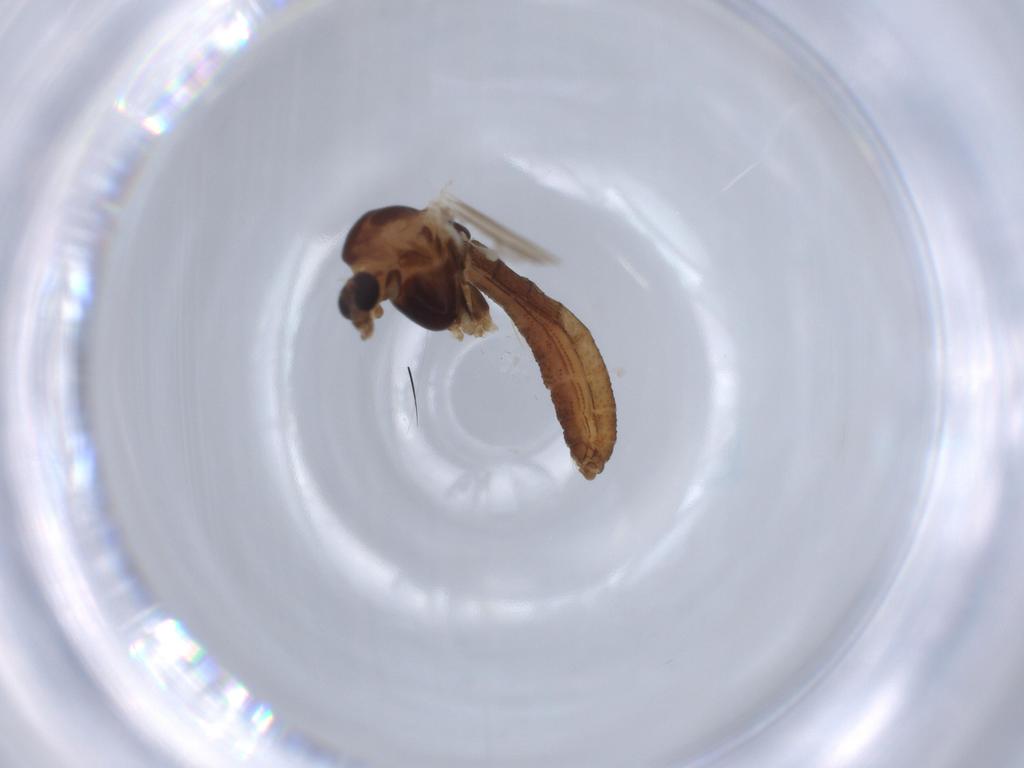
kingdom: Animalia
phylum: Arthropoda
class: Insecta
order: Diptera
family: Chironomidae
